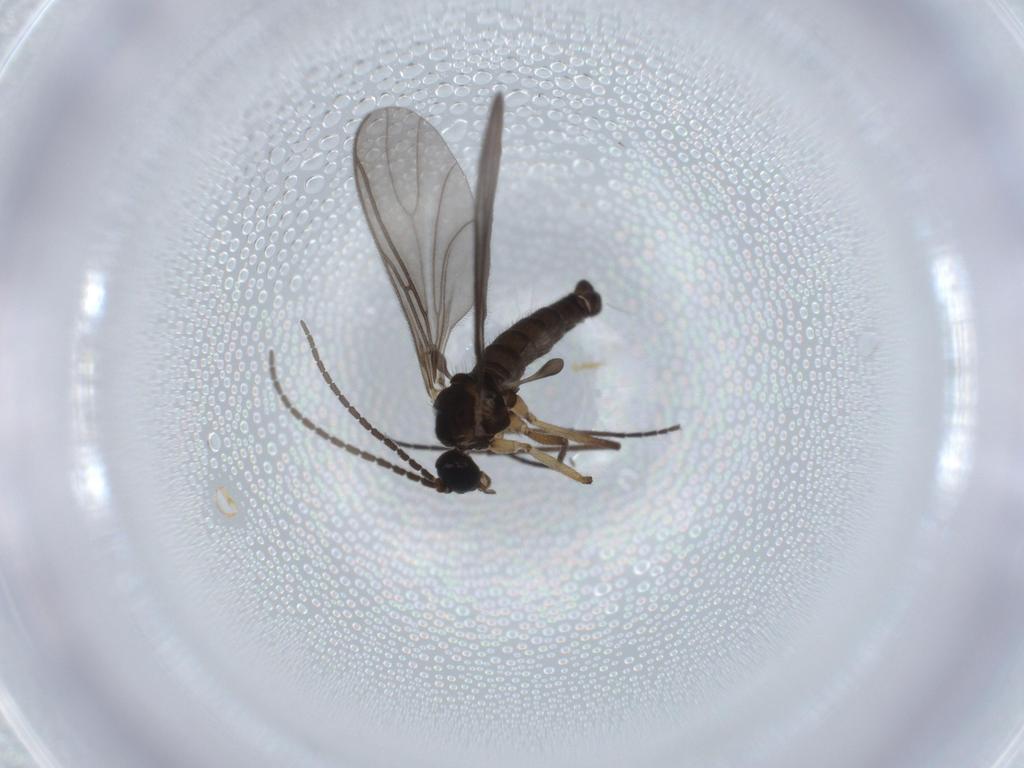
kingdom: Animalia
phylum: Arthropoda
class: Insecta
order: Diptera
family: Sciaridae
